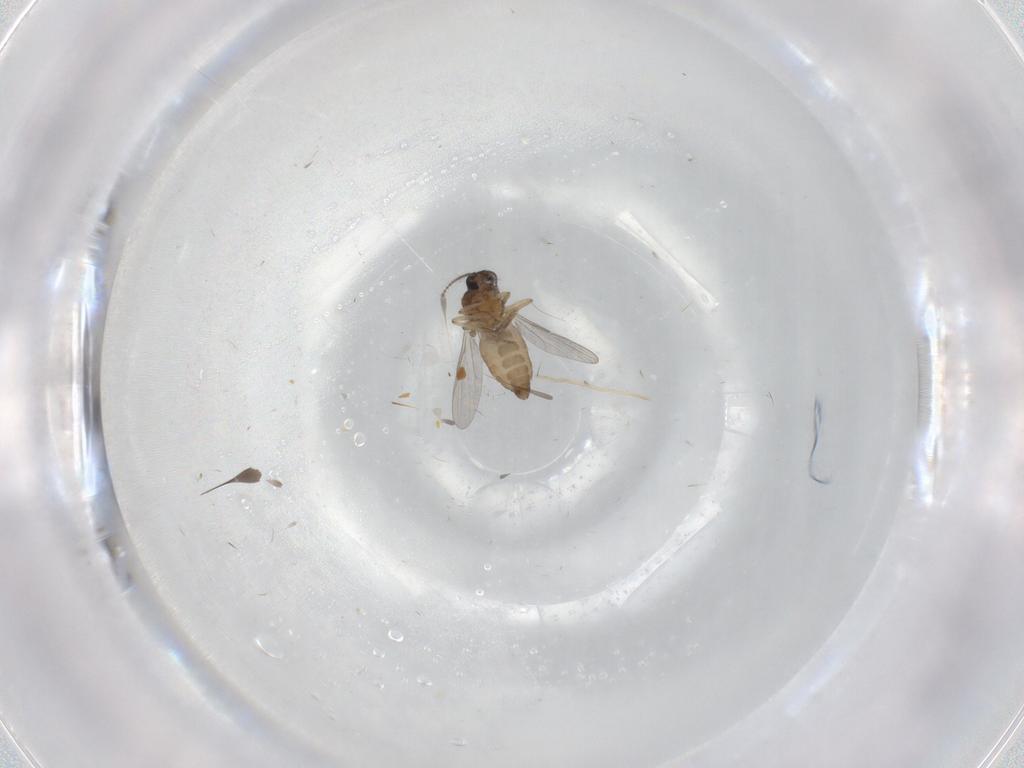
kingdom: Animalia
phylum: Arthropoda
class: Insecta
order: Diptera
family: Ceratopogonidae
